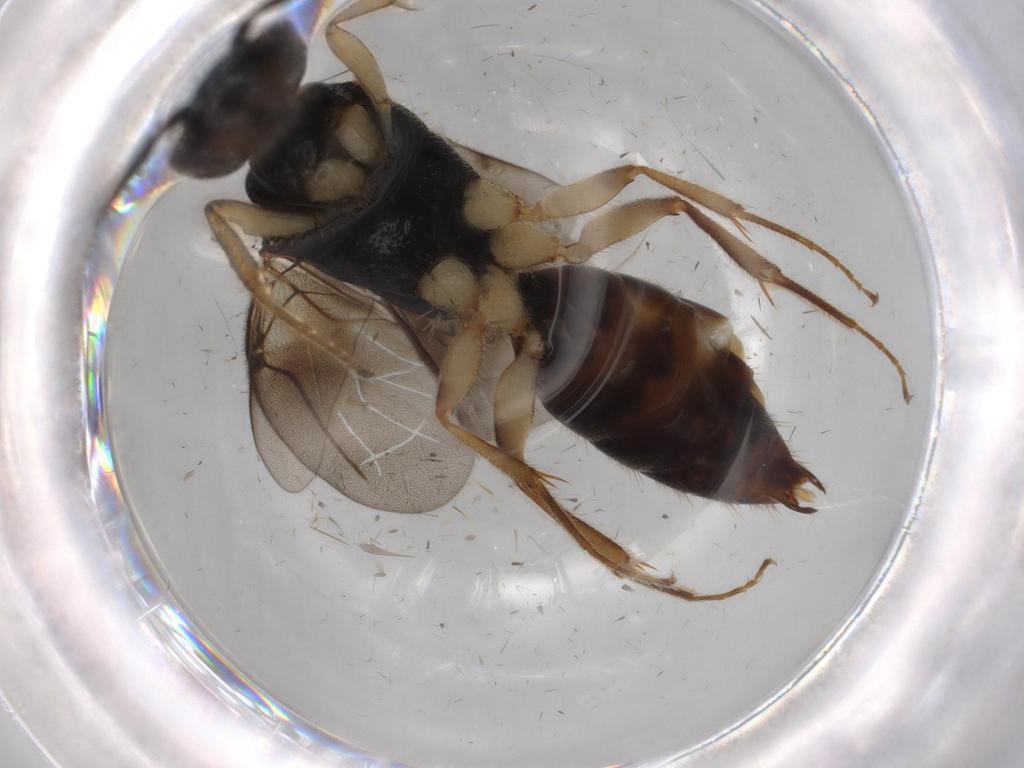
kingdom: Animalia
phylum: Arthropoda
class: Insecta
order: Hymenoptera
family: Bethylidae
